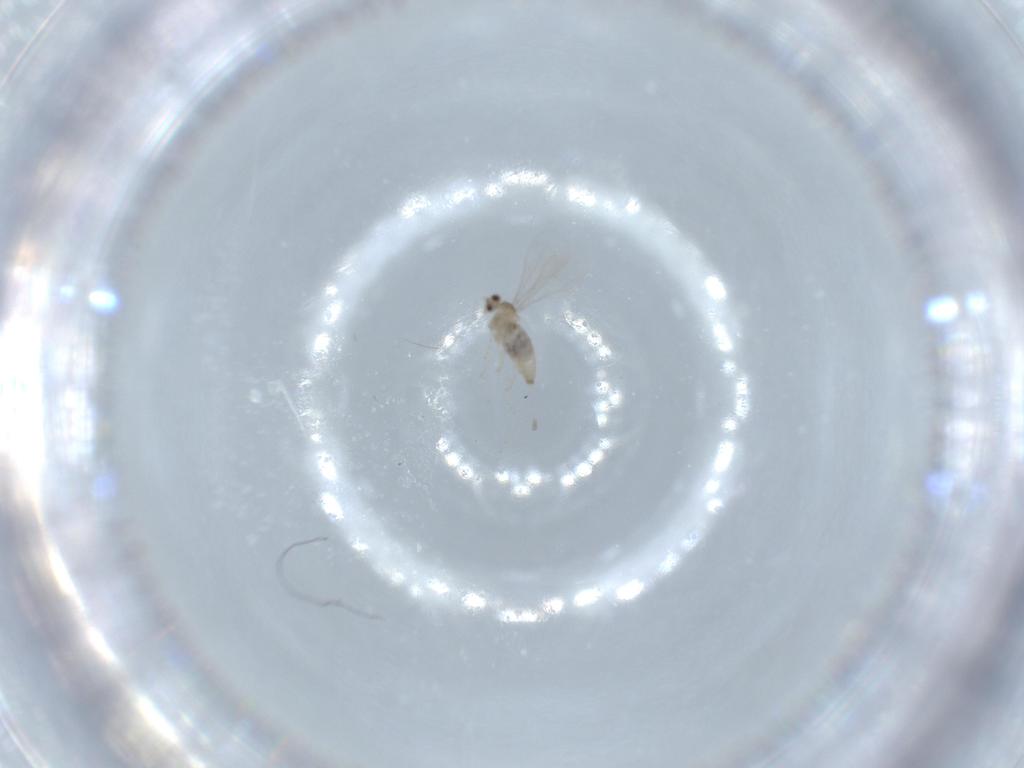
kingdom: Animalia
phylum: Arthropoda
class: Insecta
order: Diptera
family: Cecidomyiidae
